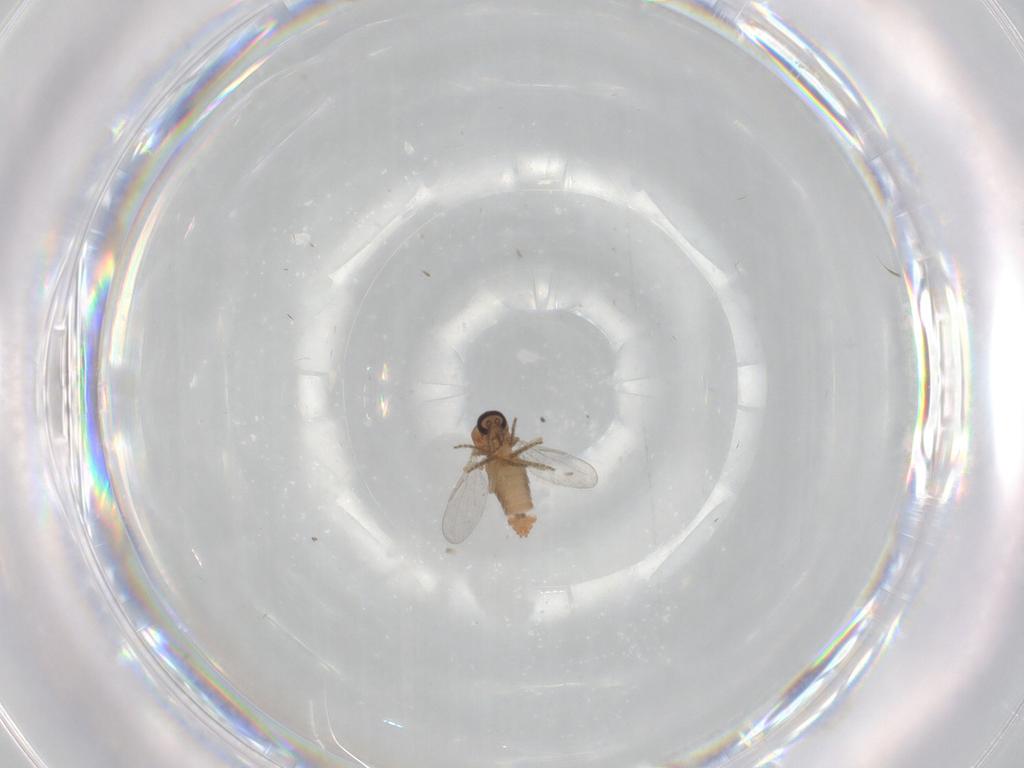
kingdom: Animalia
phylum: Arthropoda
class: Insecta
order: Diptera
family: Ceratopogonidae
